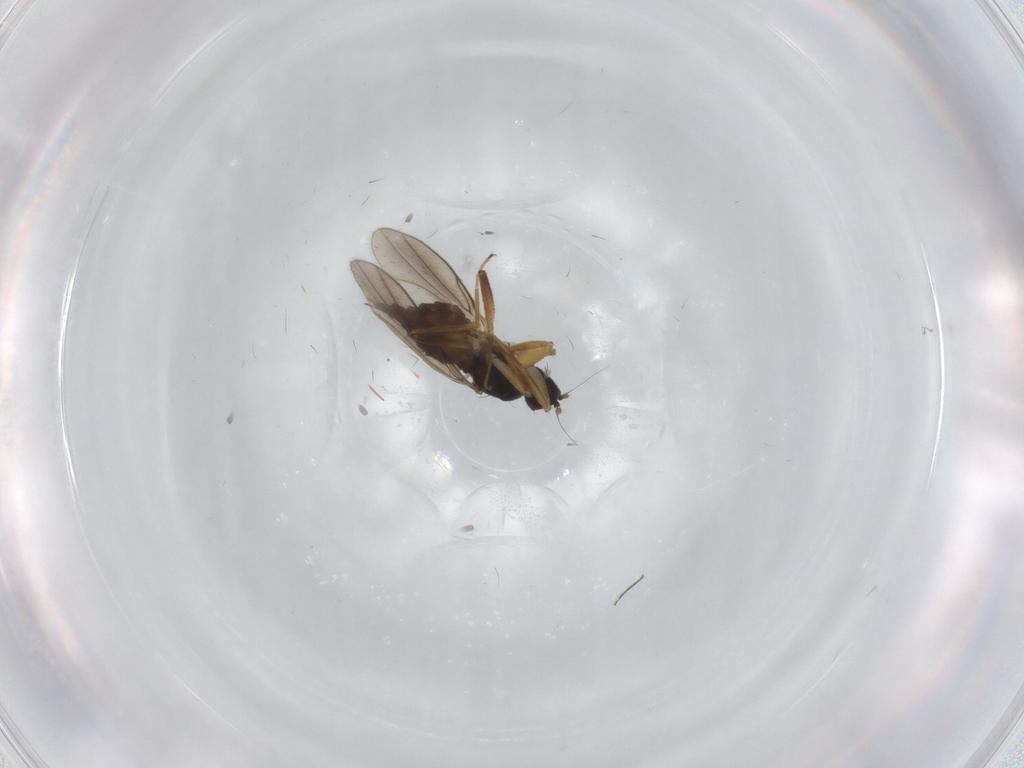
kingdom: Animalia
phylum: Arthropoda
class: Insecta
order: Diptera
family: Hybotidae
